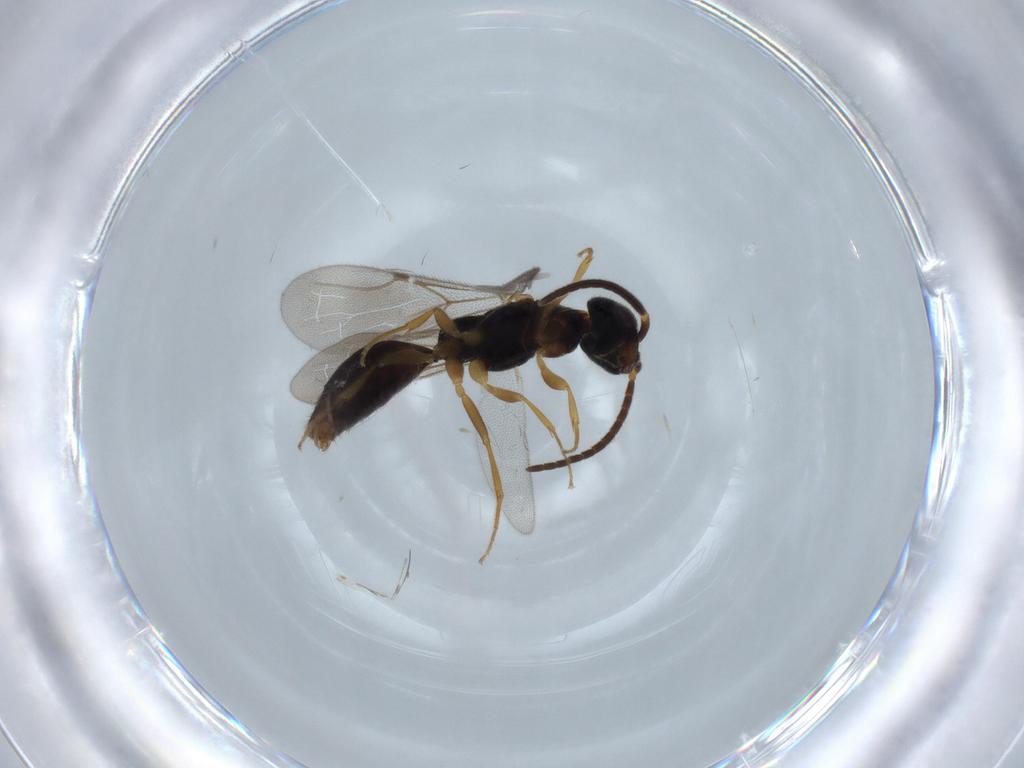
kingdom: Animalia
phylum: Arthropoda
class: Insecta
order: Hymenoptera
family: Bethylidae
